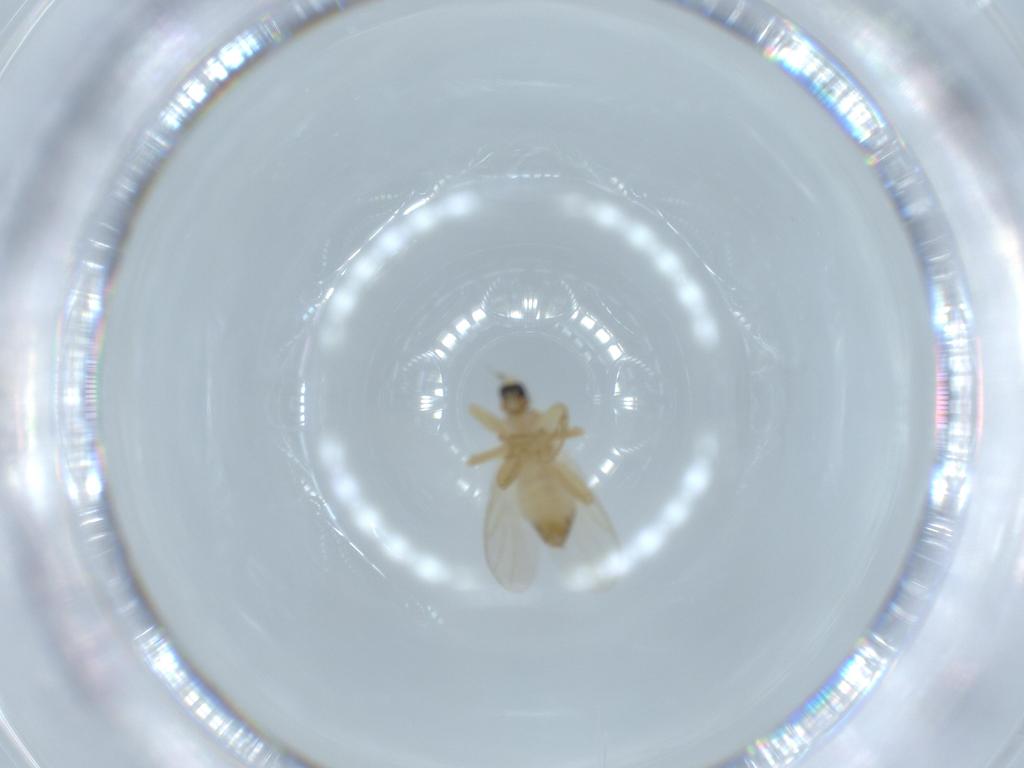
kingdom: Animalia
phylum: Arthropoda
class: Insecta
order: Diptera
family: Hybotidae
